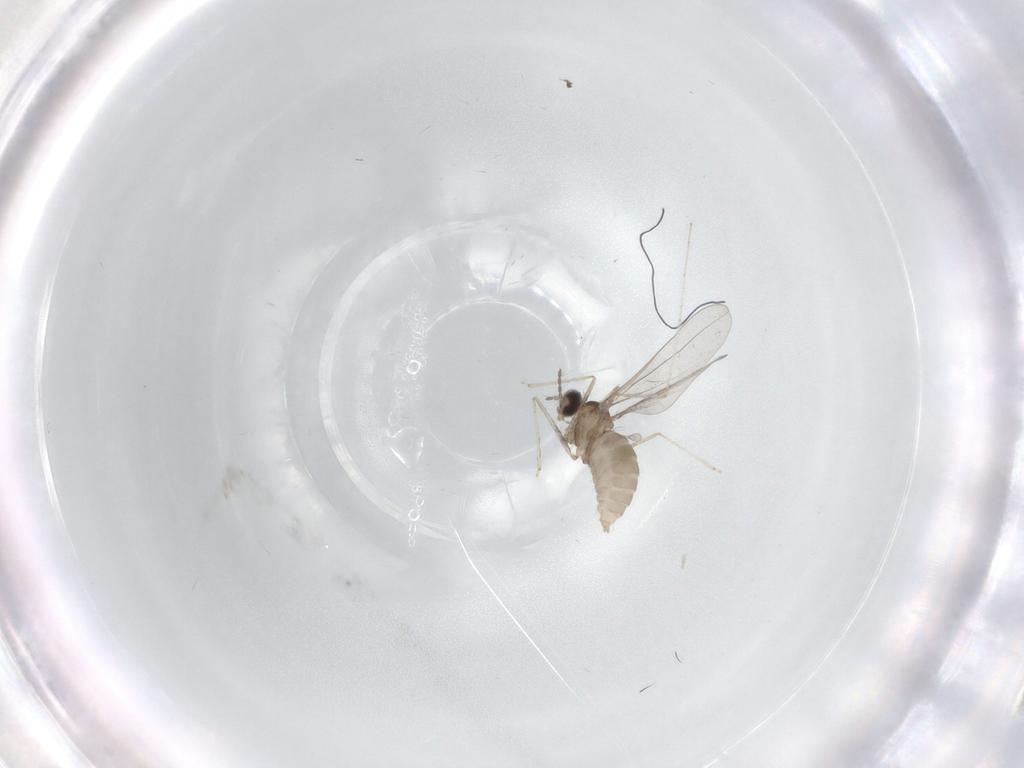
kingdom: Animalia
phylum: Arthropoda
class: Insecta
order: Diptera
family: Cecidomyiidae
